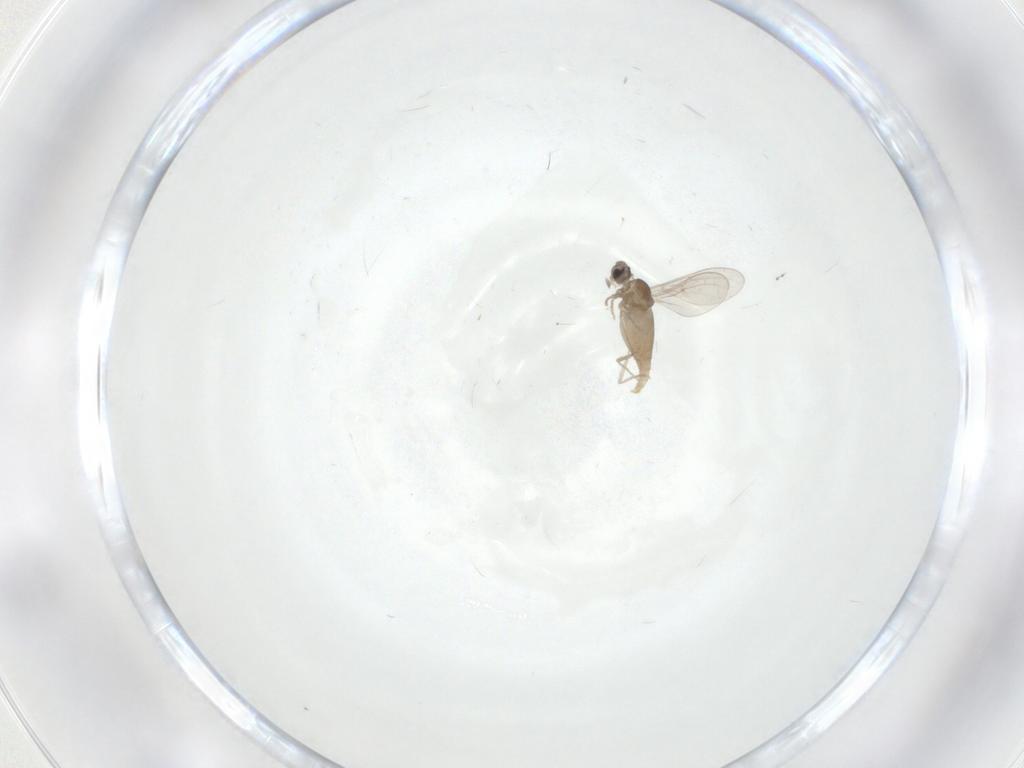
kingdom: Animalia
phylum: Arthropoda
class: Insecta
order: Diptera
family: Cecidomyiidae
